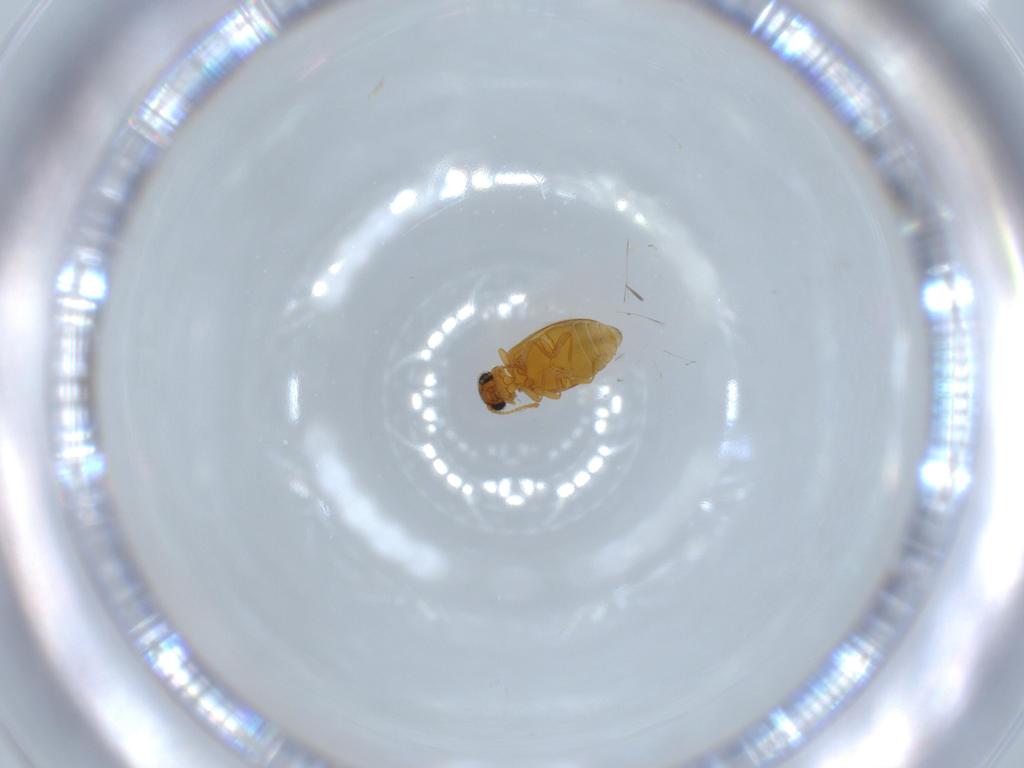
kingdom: Animalia
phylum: Arthropoda
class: Insecta
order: Coleoptera
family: Aderidae
